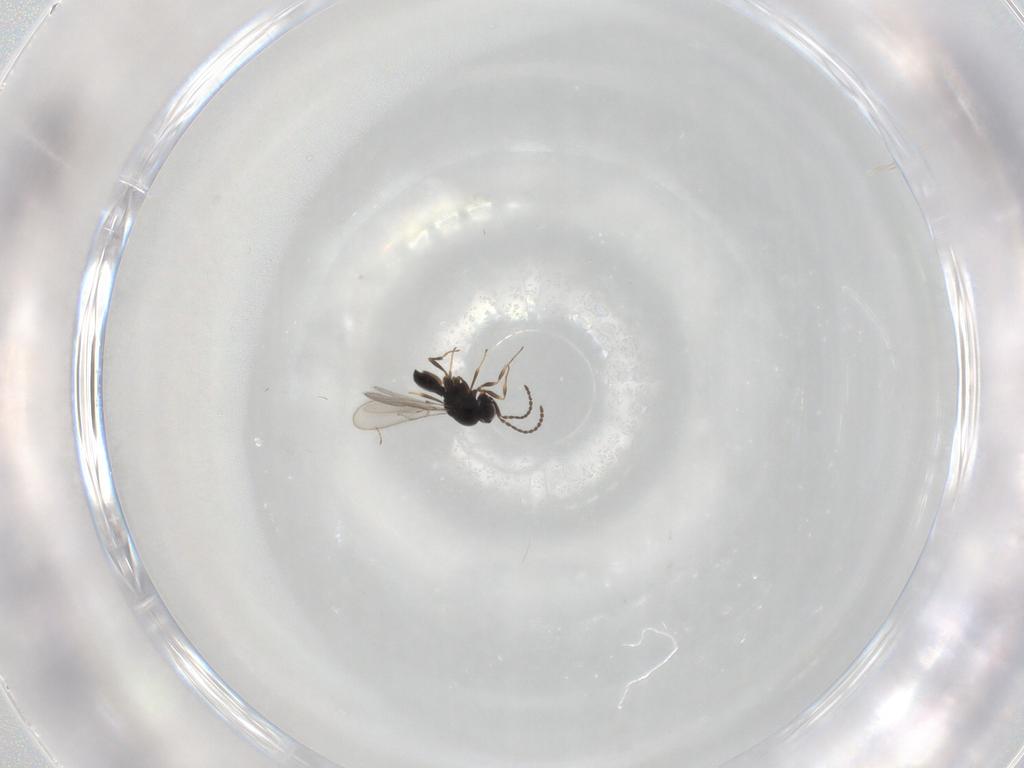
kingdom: Animalia
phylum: Arthropoda
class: Insecta
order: Hymenoptera
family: Scelionidae
